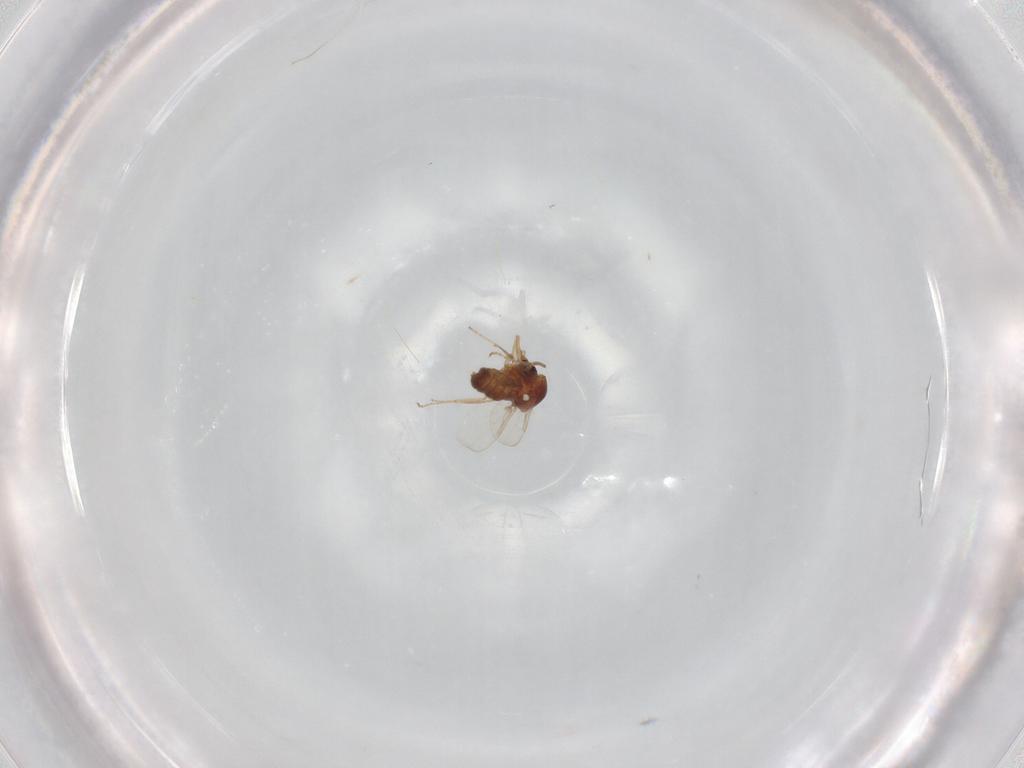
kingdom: Animalia
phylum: Arthropoda
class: Insecta
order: Diptera
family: Ceratopogonidae
